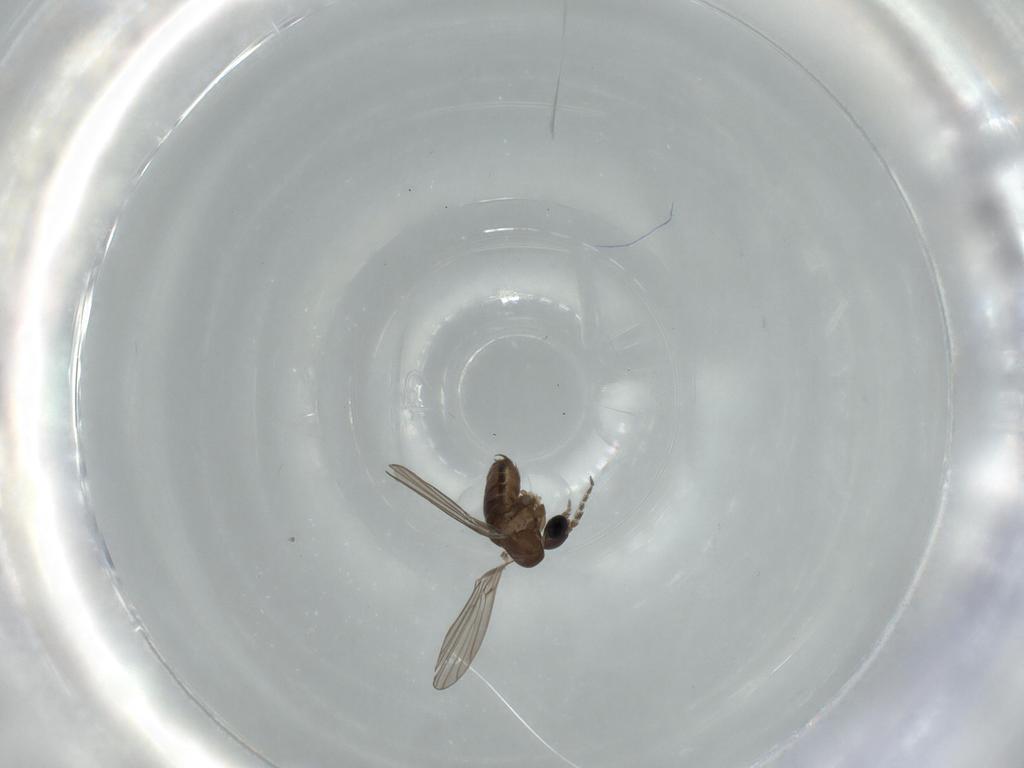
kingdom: Animalia
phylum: Arthropoda
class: Insecta
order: Diptera
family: Psychodidae
